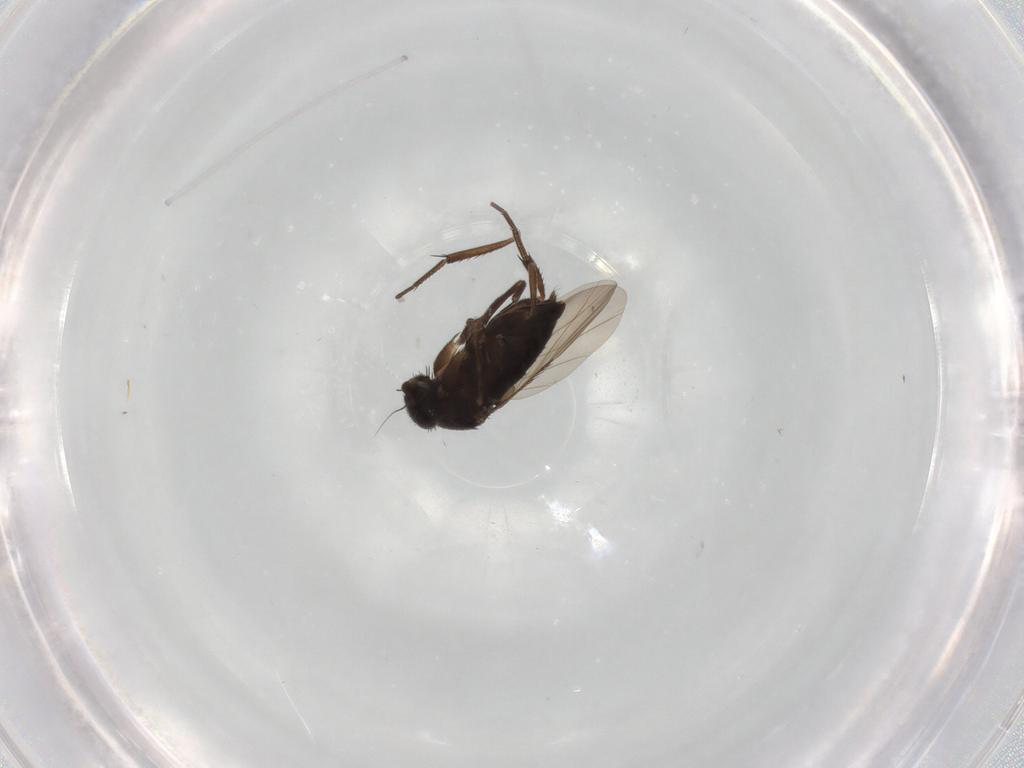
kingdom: Animalia
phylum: Arthropoda
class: Insecta
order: Diptera
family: Phoridae
